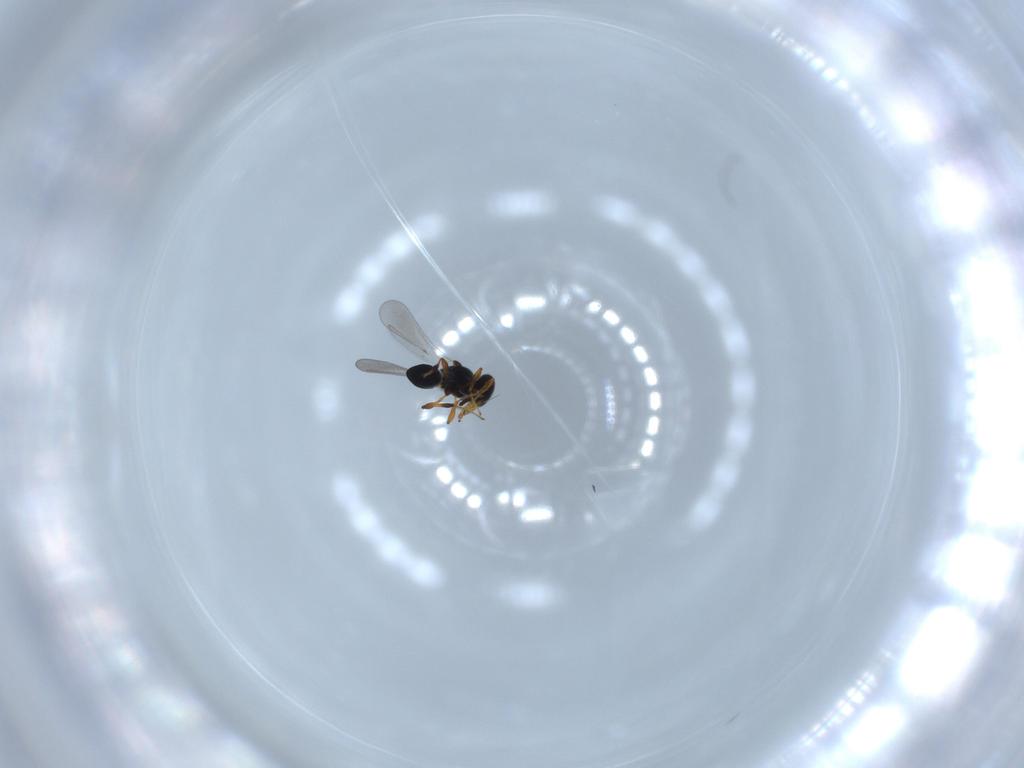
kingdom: Animalia
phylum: Arthropoda
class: Insecta
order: Hymenoptera
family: Platygastridae
